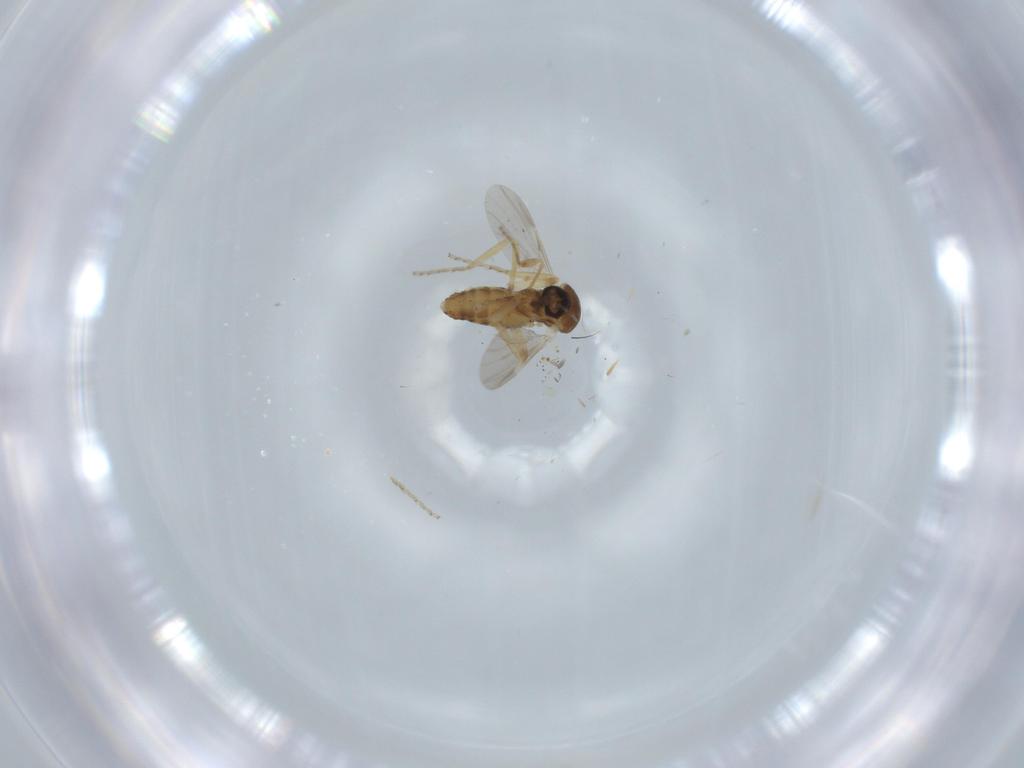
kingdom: Animalia
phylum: Arthropoda
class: Insecta
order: Diptera
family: Ceratopogonidae
